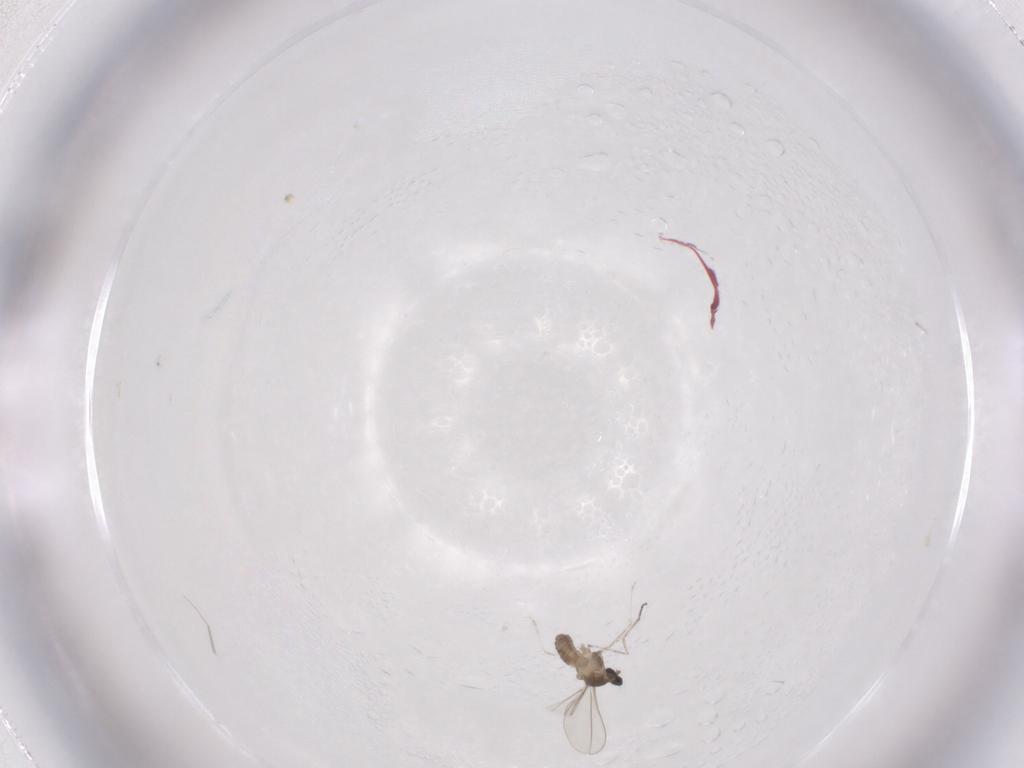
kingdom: Animalia
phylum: Arthropoda
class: Insecta
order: Diptera
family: Cecidomyiidae
